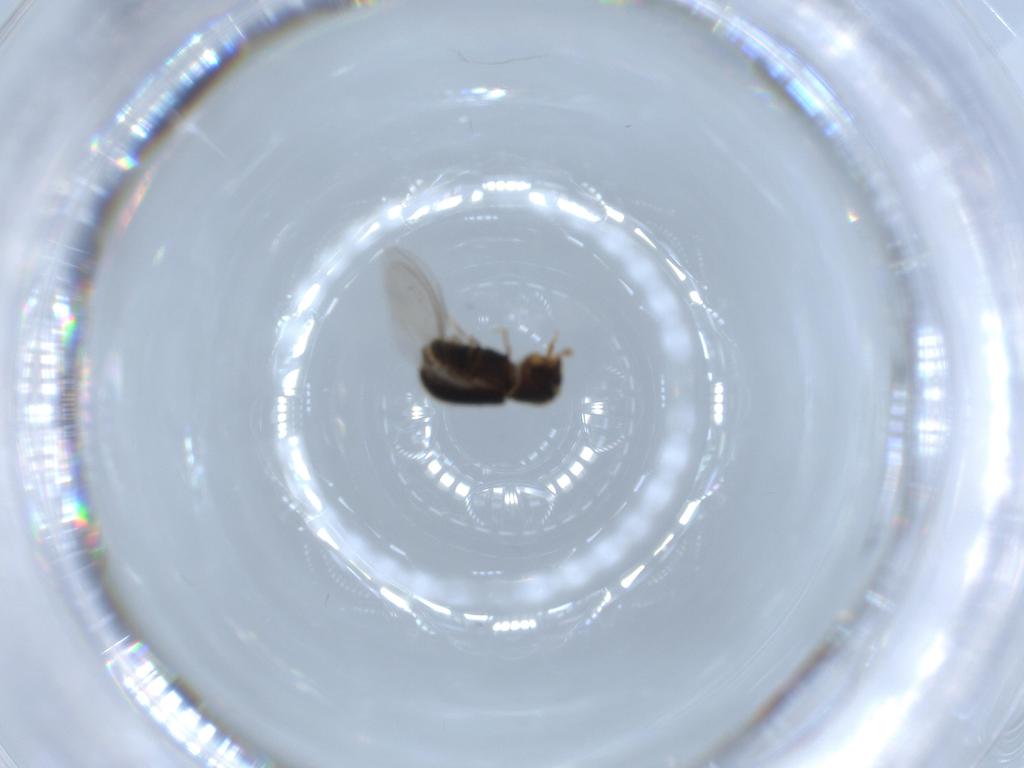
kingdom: Animalia
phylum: Arthropoda
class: Insecta
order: Coleoptera
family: Curculionidae
